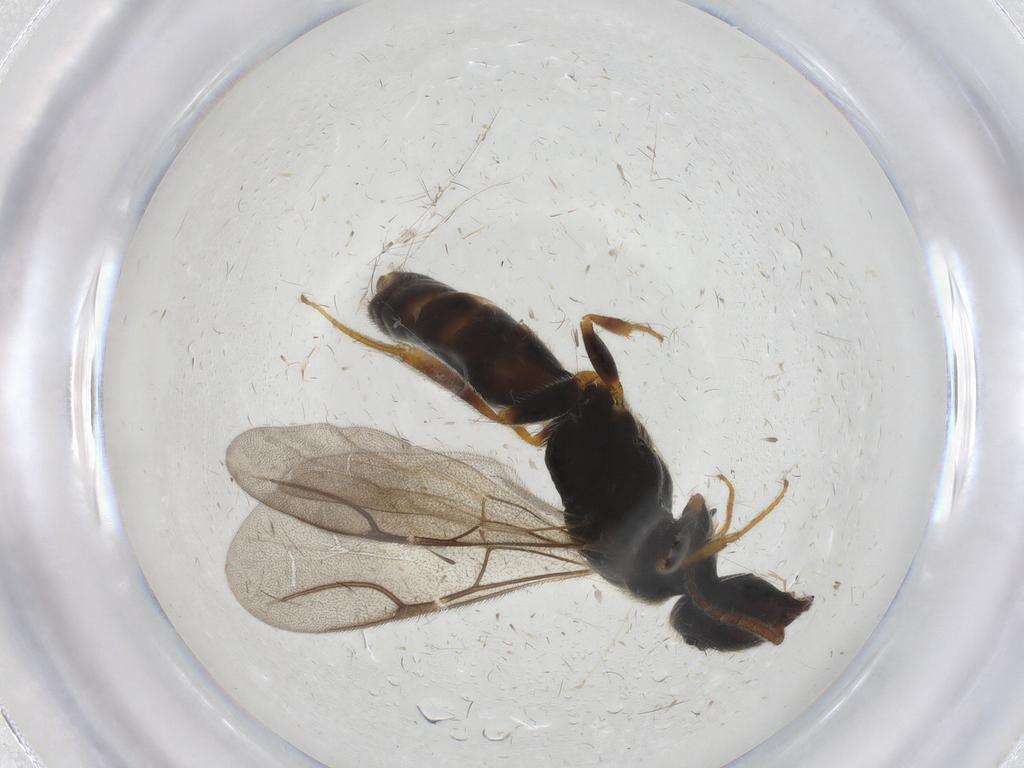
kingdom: Animalia
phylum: Arthropoda
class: Insecta
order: Hymenoptera
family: Bethylidae
